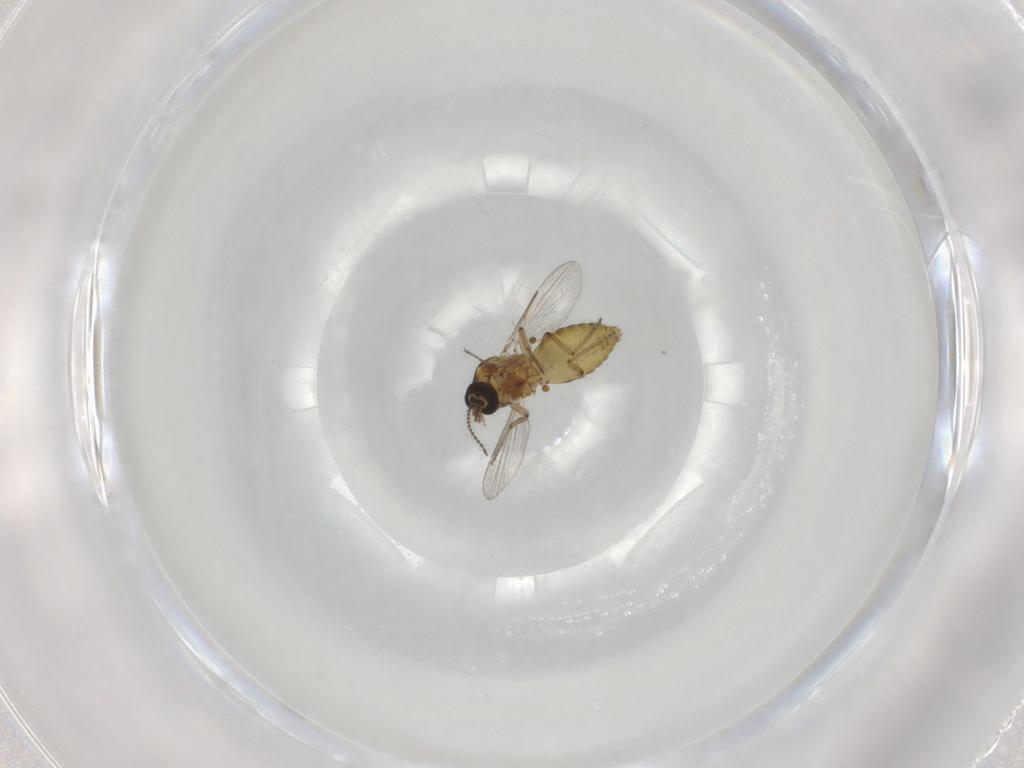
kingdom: Animalia
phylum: Arthropoda
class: Insecta
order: Diptera
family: Ceratopogonidae
